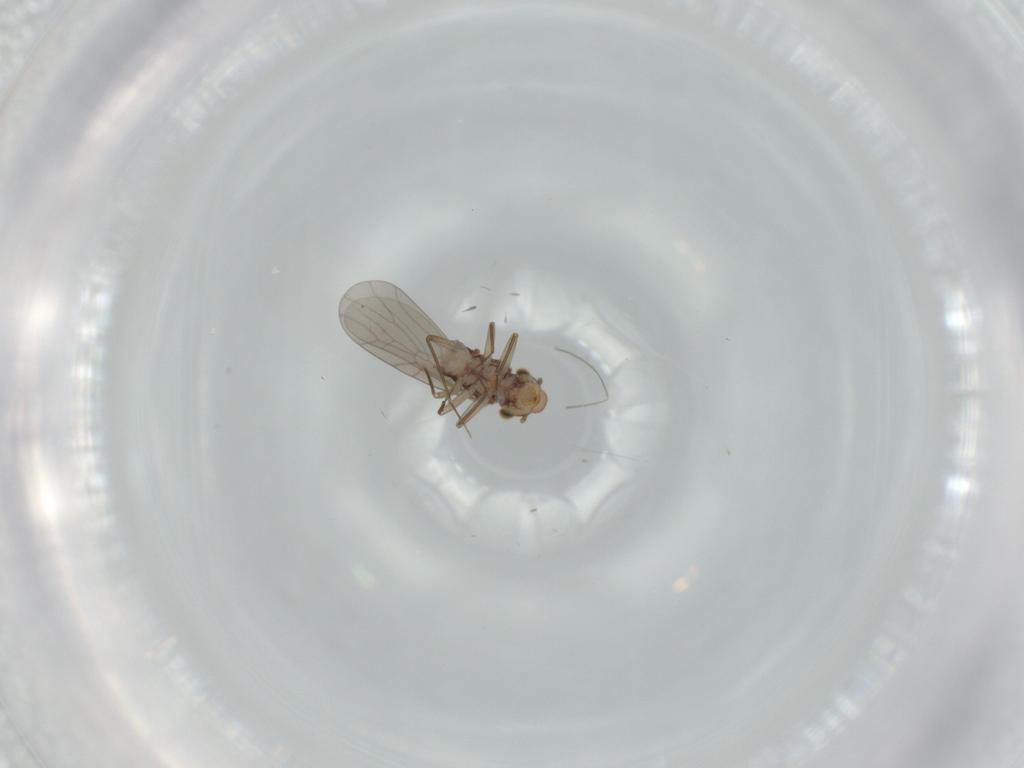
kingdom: Animalia
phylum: Arthropoda
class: Insecta
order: Psocodea
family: Lepidopsocidae
